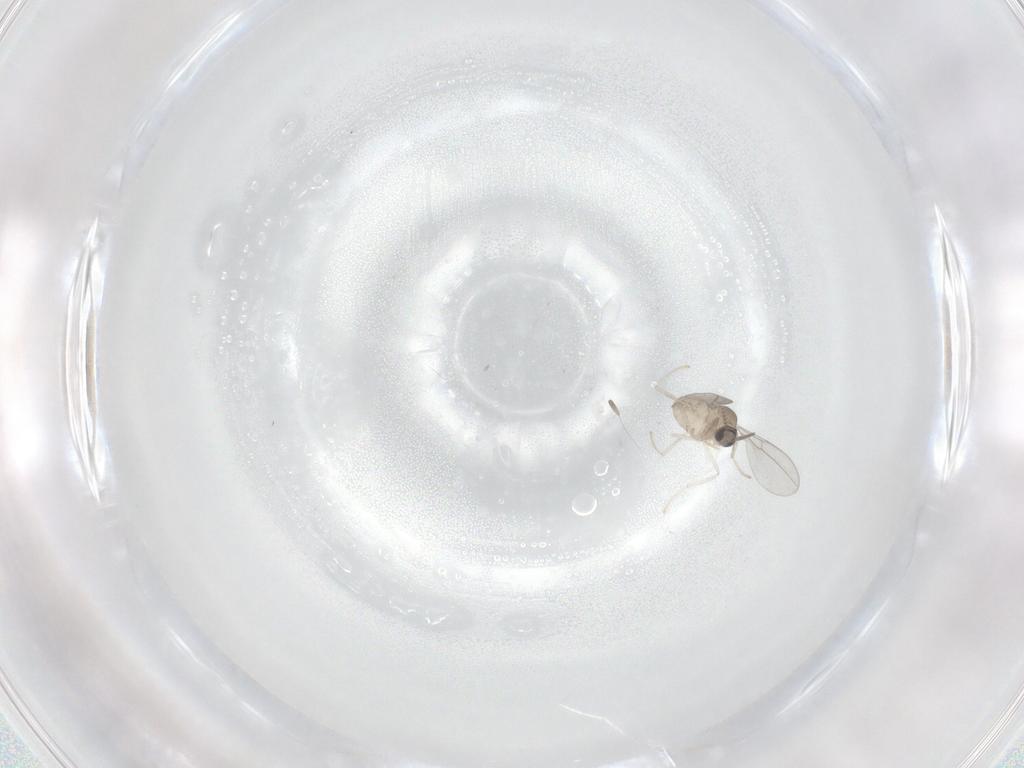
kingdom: Animalia
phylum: Arthropoda
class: Insecta
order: Diptera
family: Cecidomyiidae
